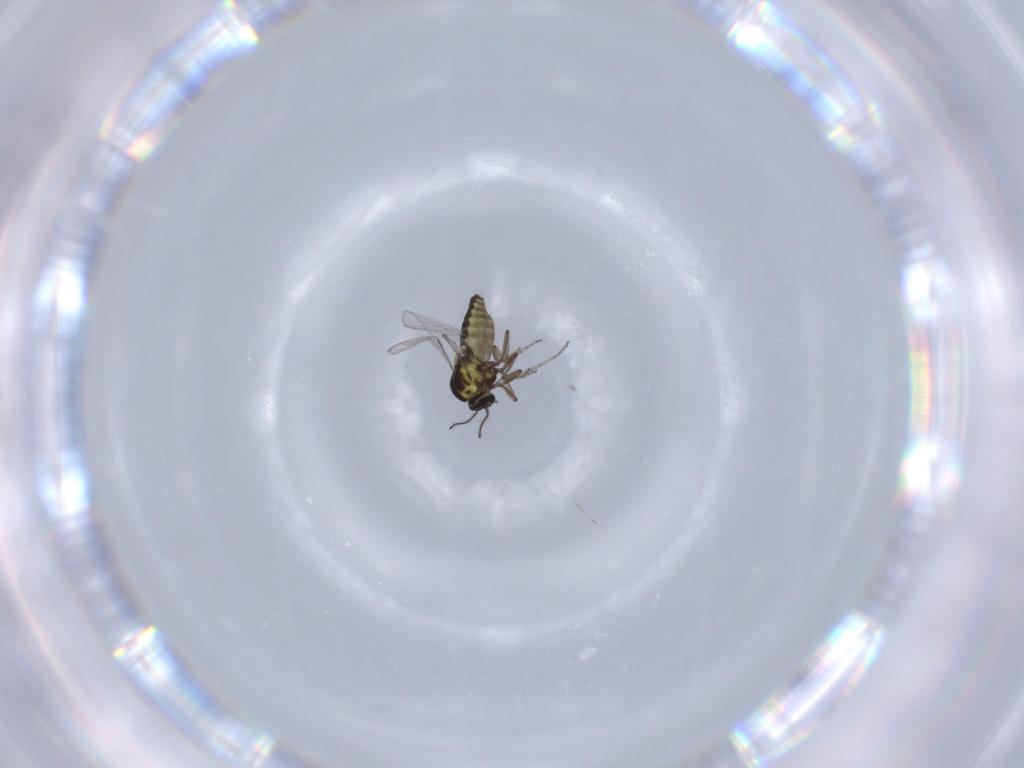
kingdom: Animalia
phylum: Arthropoda
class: Insecta
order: Diptera
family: Ceratopogonidae
